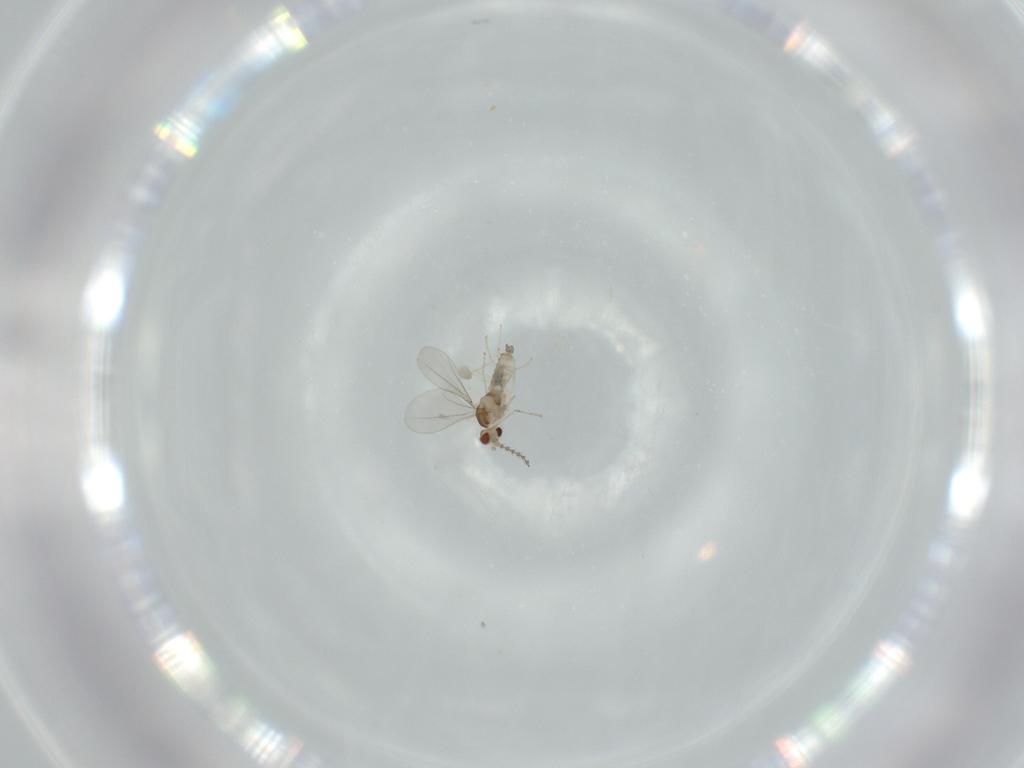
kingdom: Animalia
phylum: Arthropoda
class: Insecta
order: Diptera
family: Cecidomyiidae
